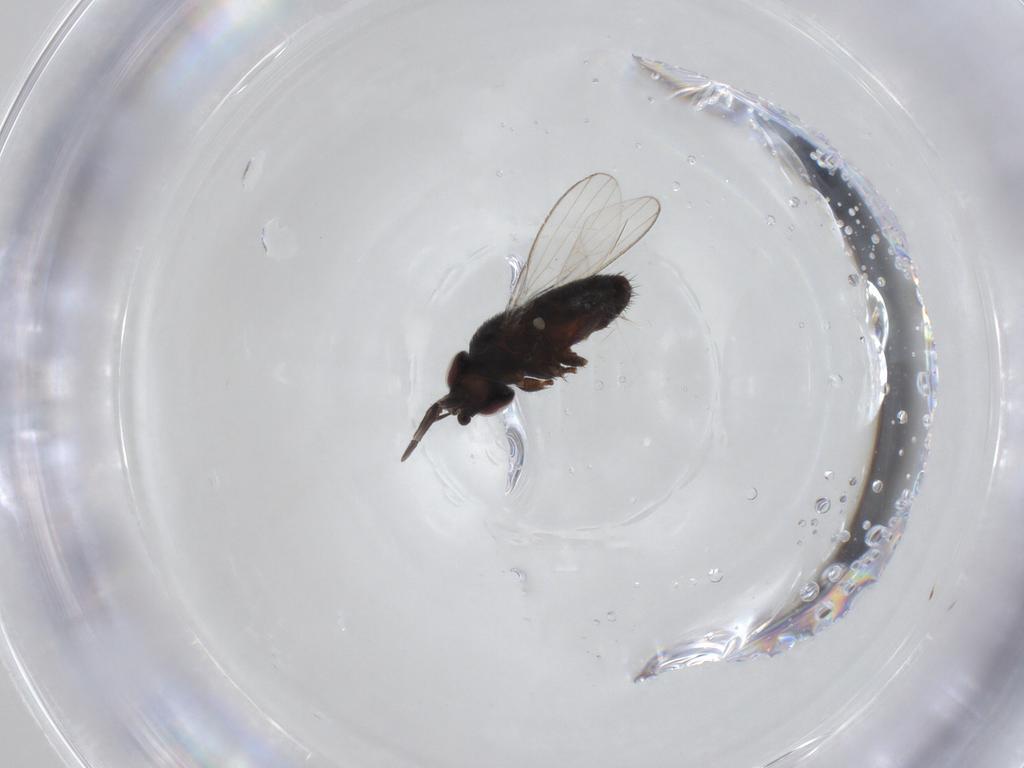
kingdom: Animalia
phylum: Arthropoda
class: Insecta
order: Diptera
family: Milichiidae
